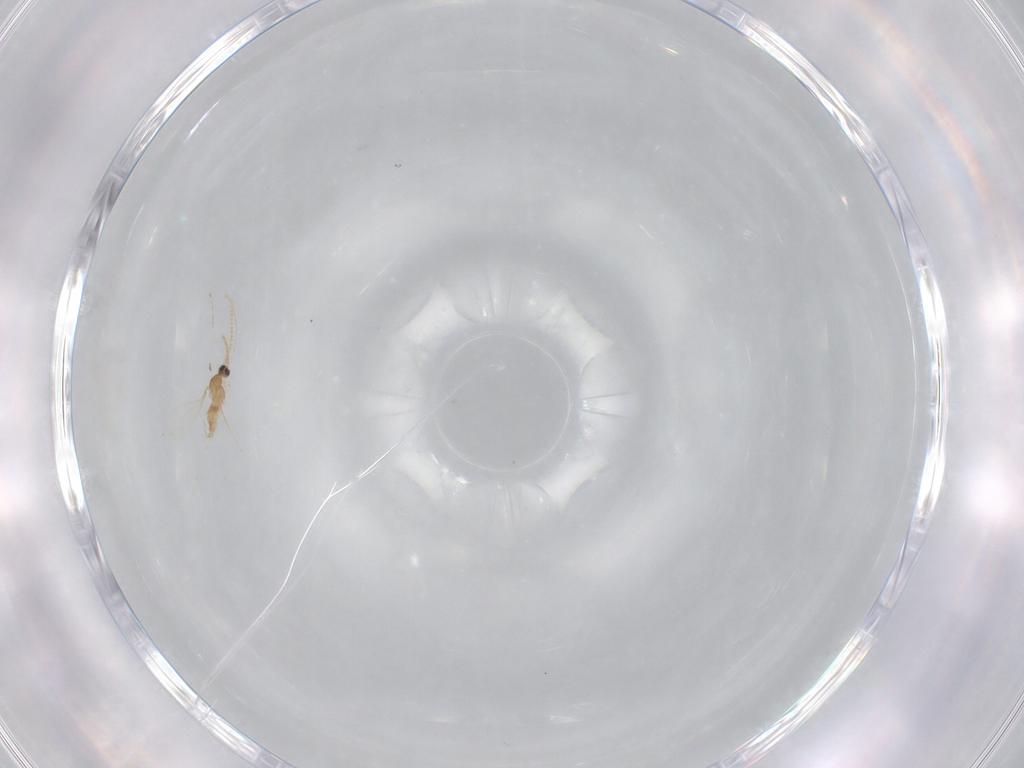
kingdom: Animalia
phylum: Arthropoda
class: Insecta
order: Diptera
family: Cecidomyiidae
